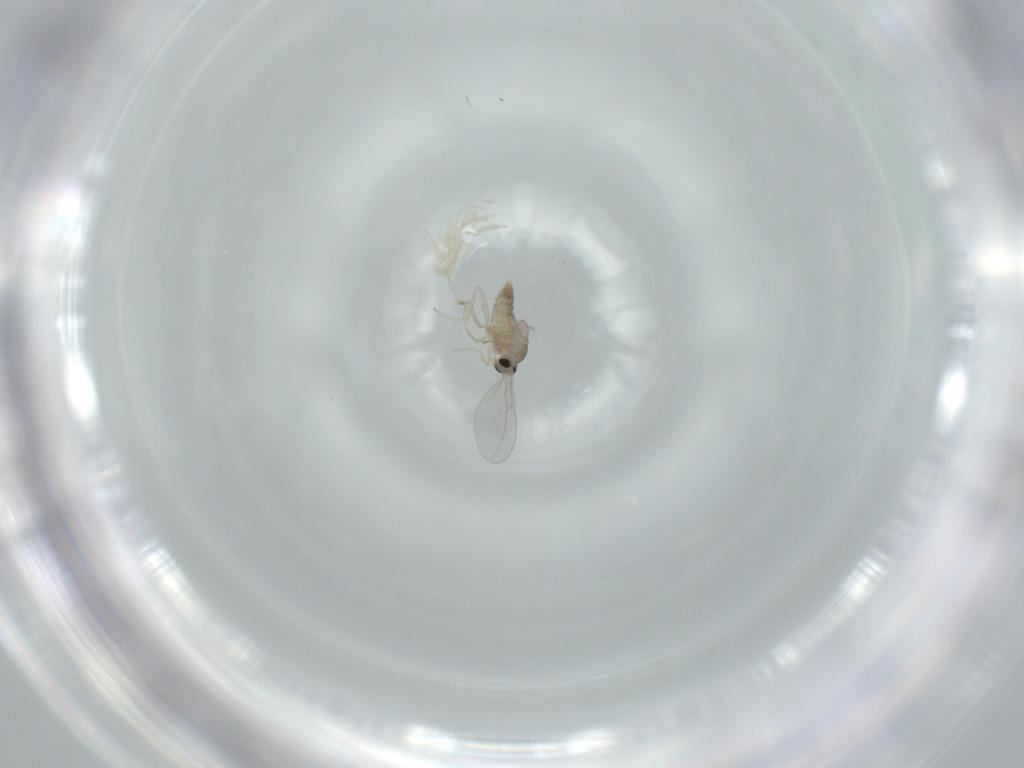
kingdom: Animalia
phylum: Arthropoda
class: Insecta
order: Diptera
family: Cecidomyiidae
